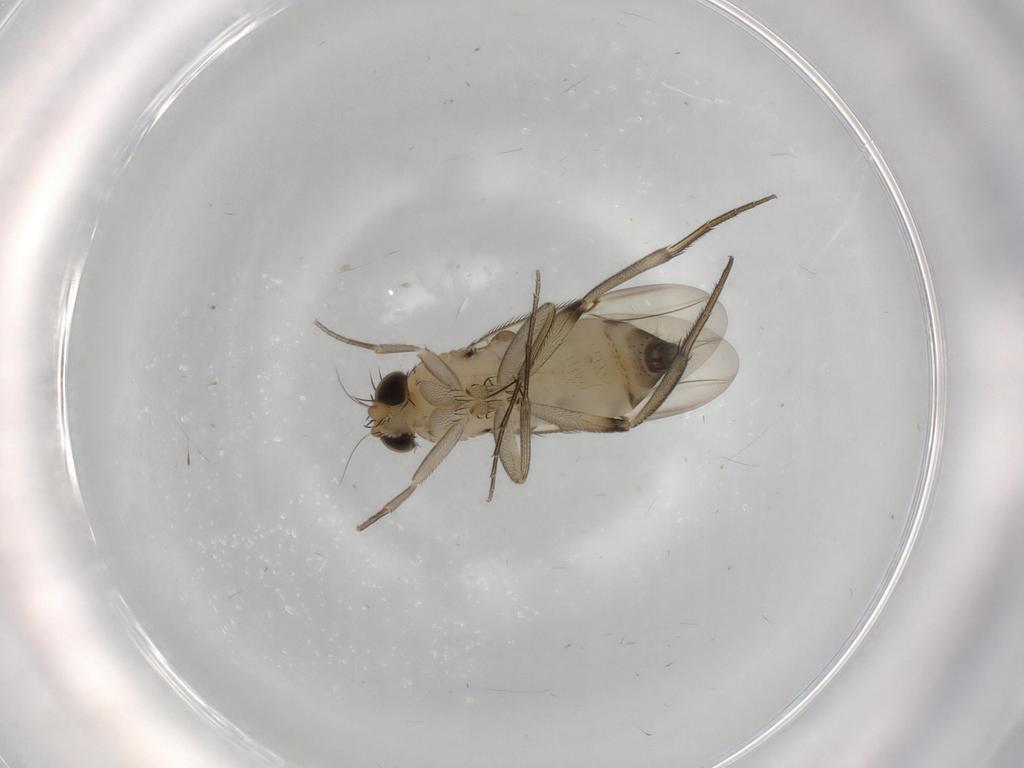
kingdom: Animalia
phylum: Arthropoda
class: Insecta
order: Diptera
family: Phoridae
